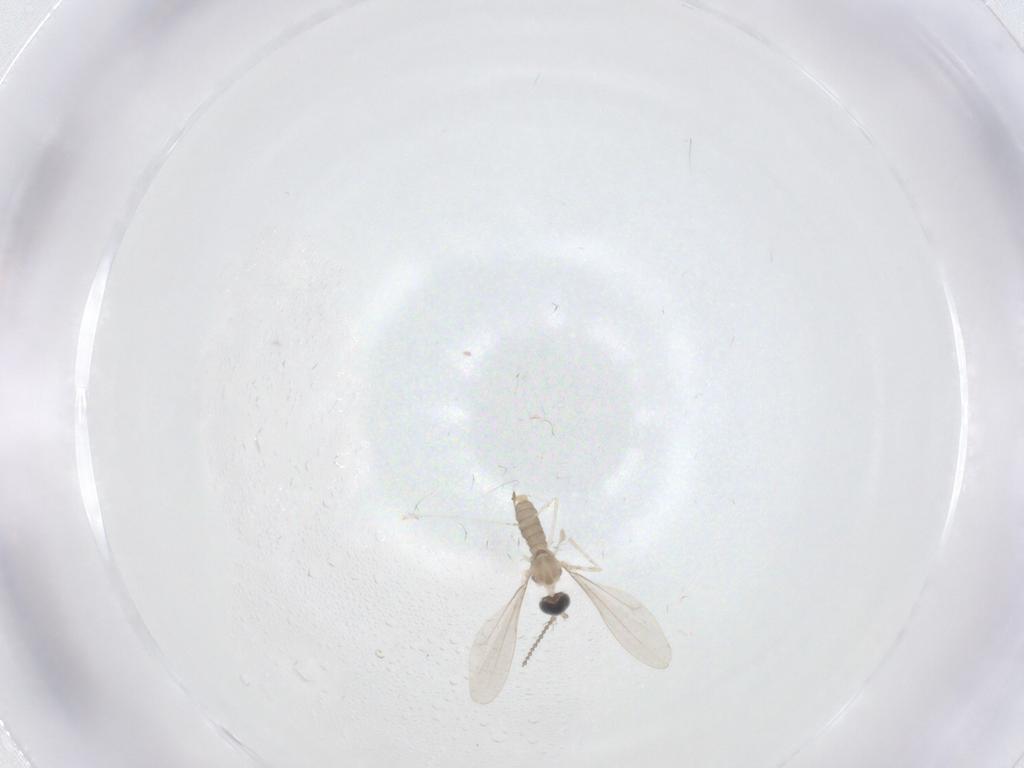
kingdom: Animalia
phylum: Arthropoda
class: Insecta
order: Diptera
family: Cecidomyiidae
